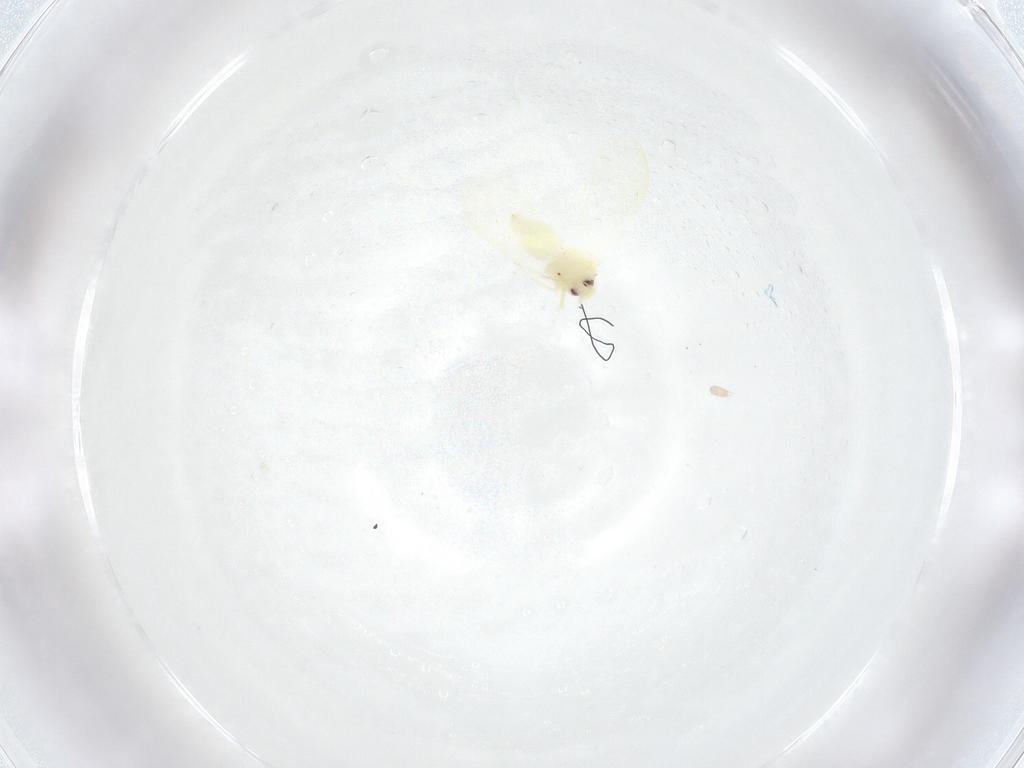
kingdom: Animalia
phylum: Arthropoda
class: Insecta
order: Hemiptera
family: Aleyrodidae
